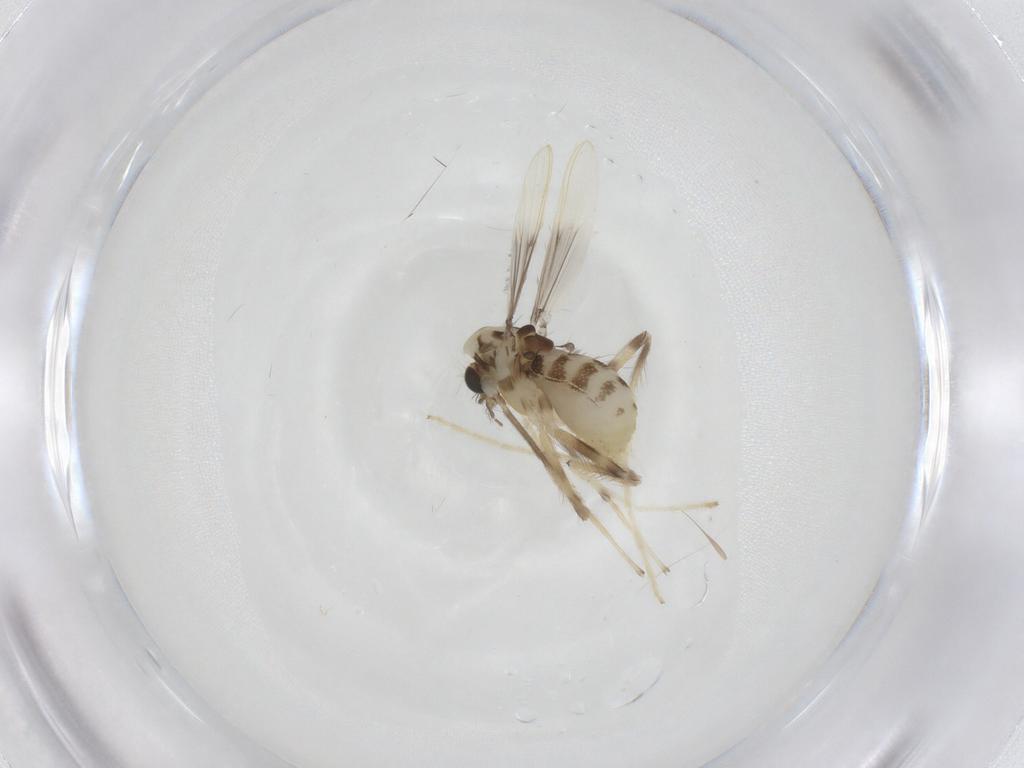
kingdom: Animalia
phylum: Arthropoda
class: Insecta
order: Diptera
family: Chironomidae
